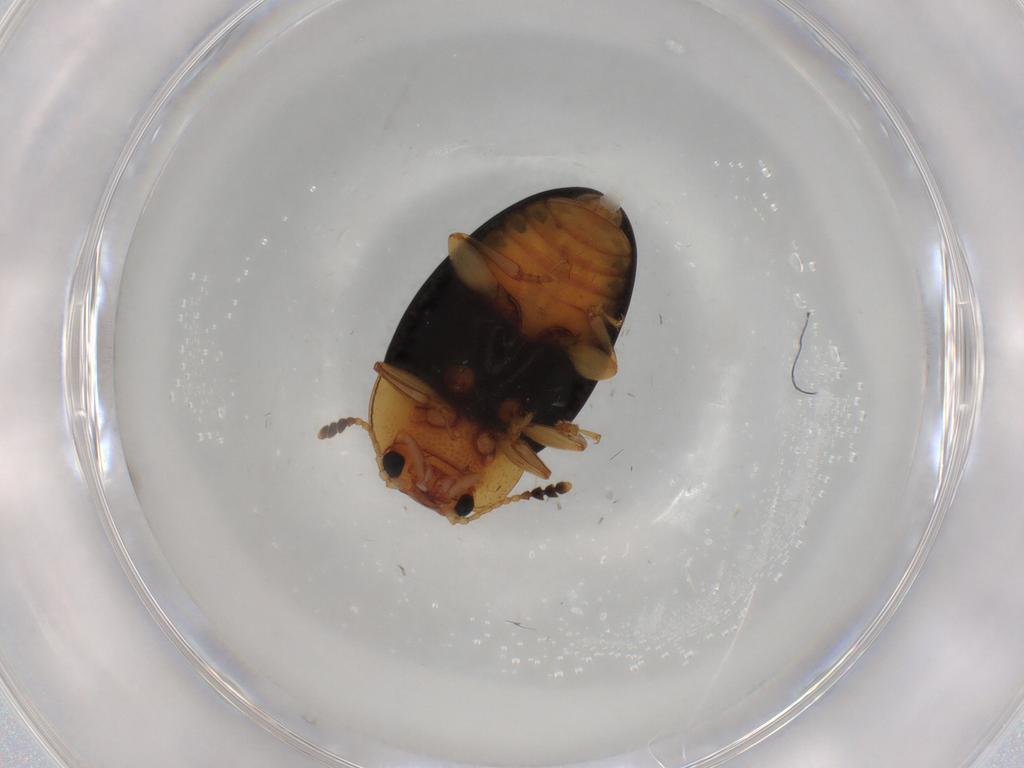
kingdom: Animalia
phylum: Arthropoda
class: Insecta
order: Coleoptera
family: Erotylidae
